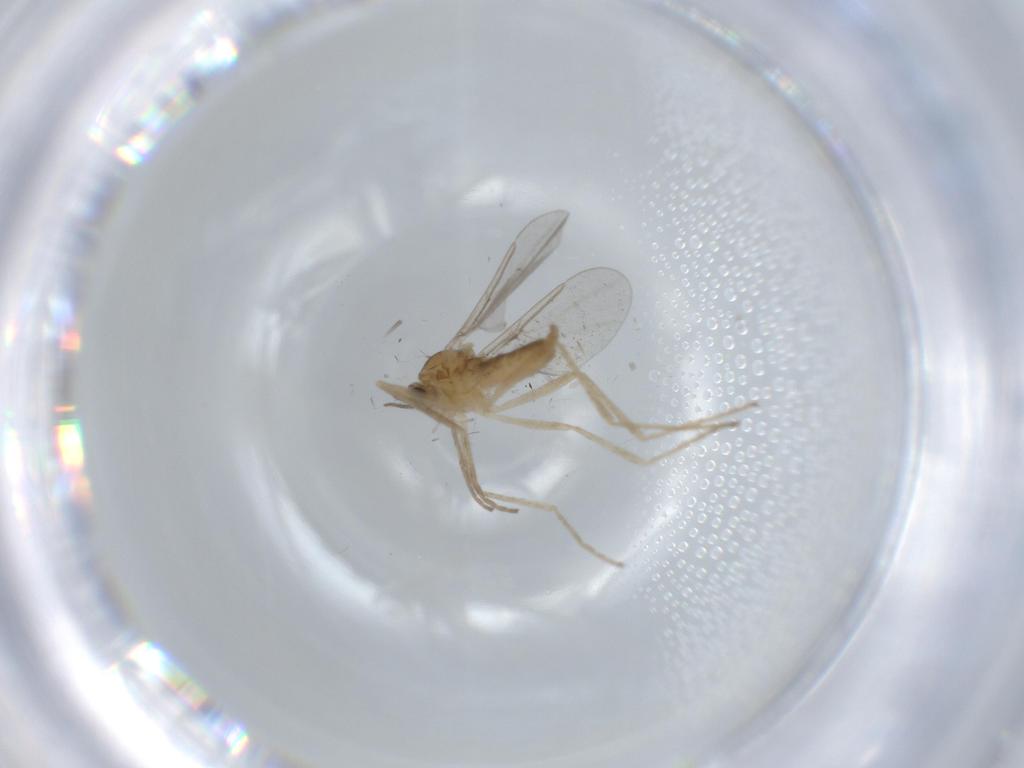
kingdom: Animalia
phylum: Arthropoda
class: Insecta
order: Diptera
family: Cecidomyiidae
